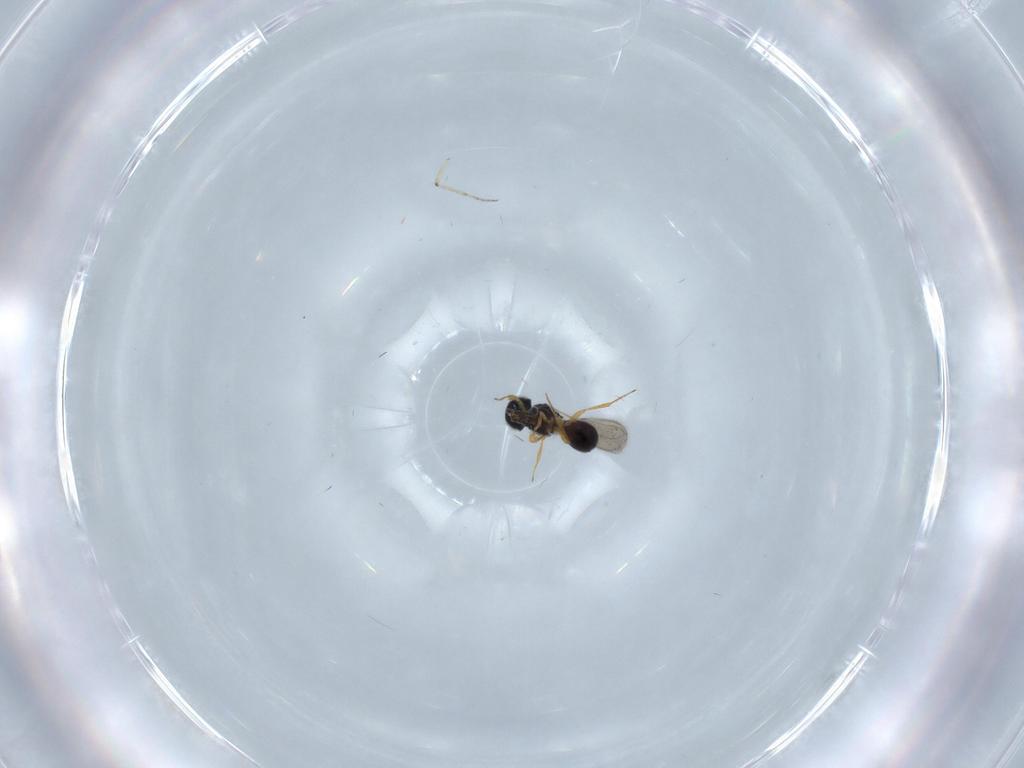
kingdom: Animalia
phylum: Arthropoda
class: Insecta
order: Hymenoptera
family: Scelionidae
